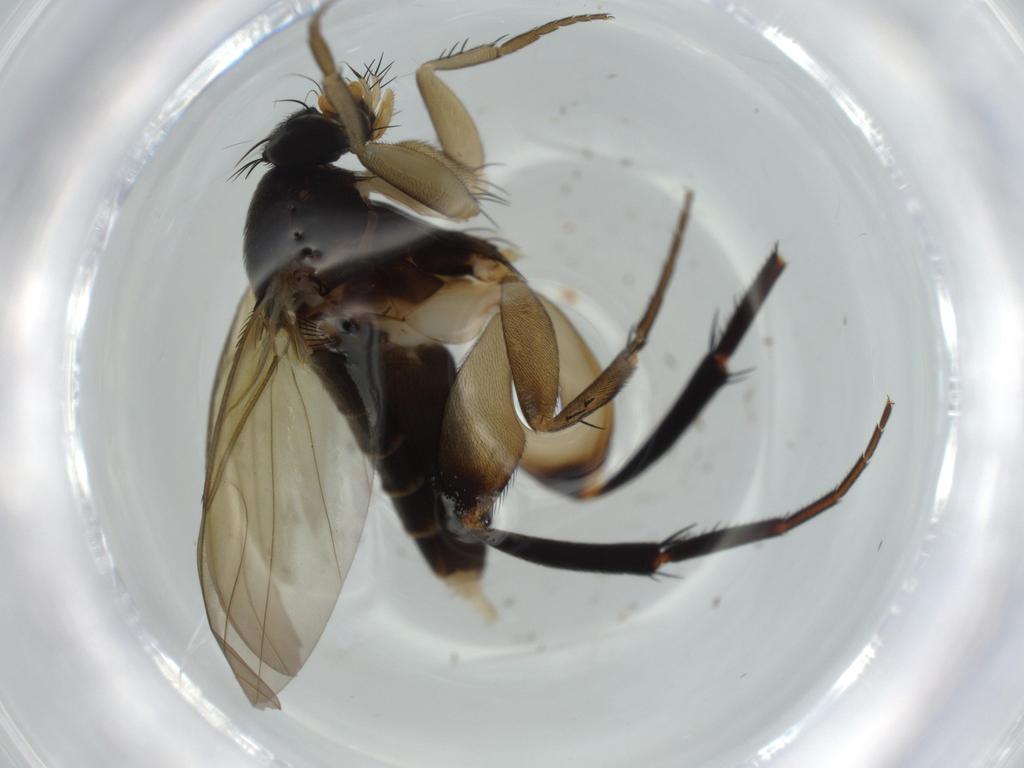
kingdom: Animalia
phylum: Arthropoda
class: Insecta
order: Diptera
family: Phoridae
